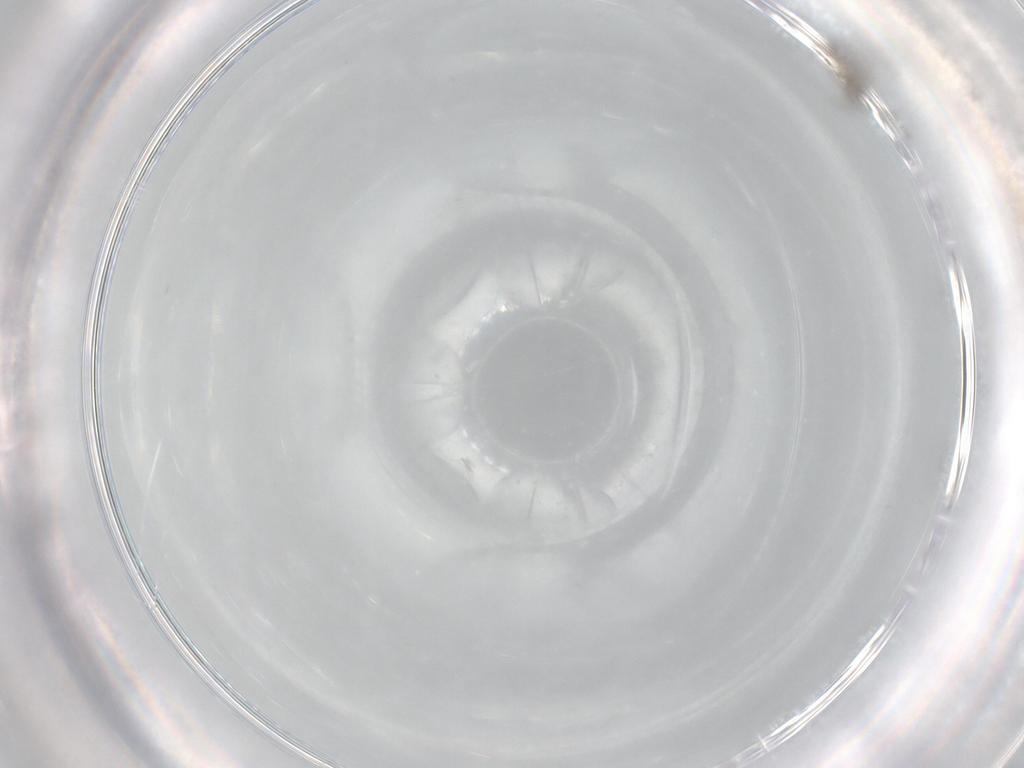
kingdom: Animalia
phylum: Arthropoda
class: Insecta
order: Diptera
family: Cecidomyiidae
